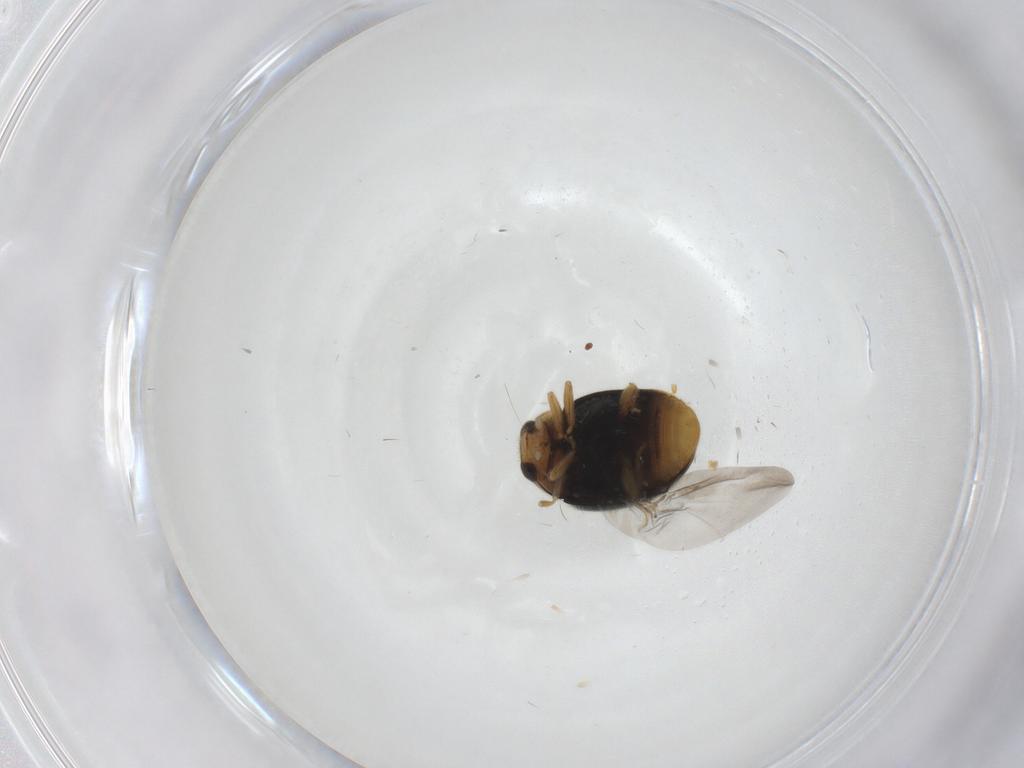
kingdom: Animalia
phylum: Arthropoda
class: Insecta
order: Coleoptera
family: Coccinellidae
